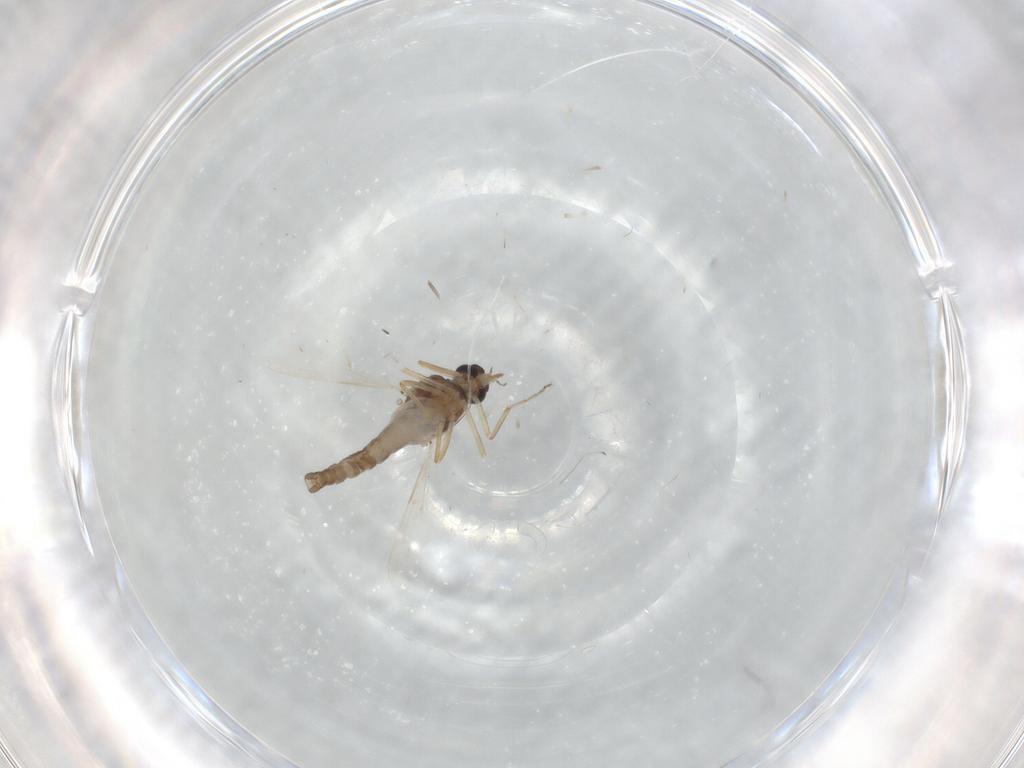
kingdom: Animalia
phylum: Arthropoda
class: Insecta
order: Diptera
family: Ceratopogonidae
